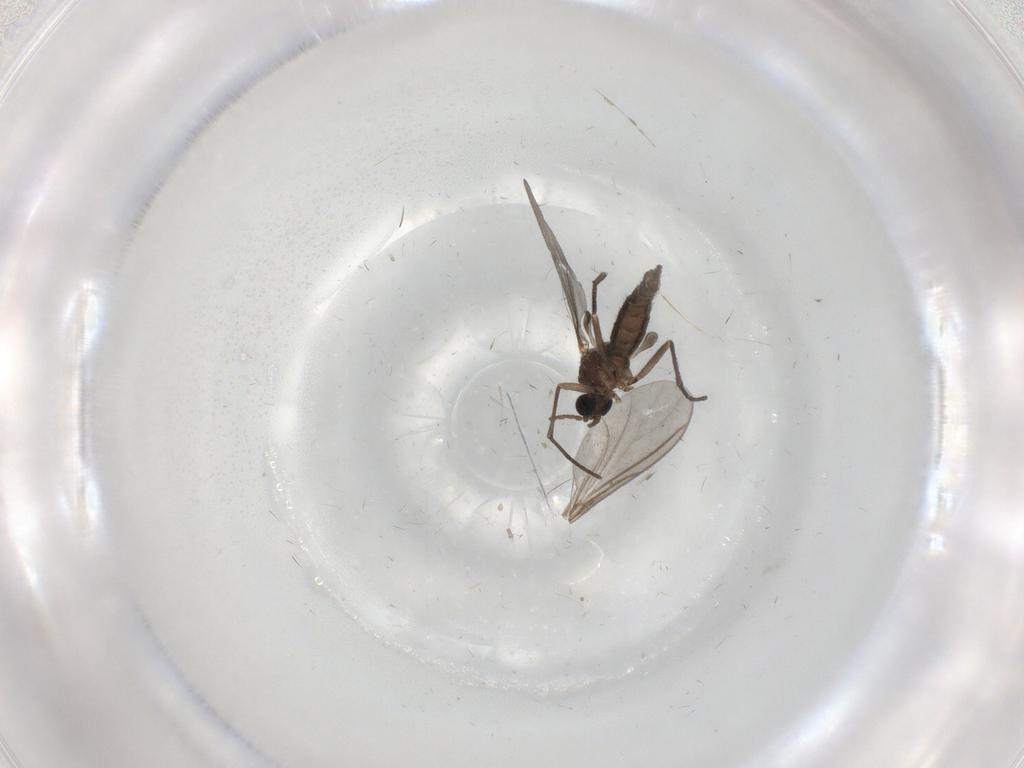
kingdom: Animalia
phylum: Arthropoda
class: Insecta
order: Diptera
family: Sciaridae
